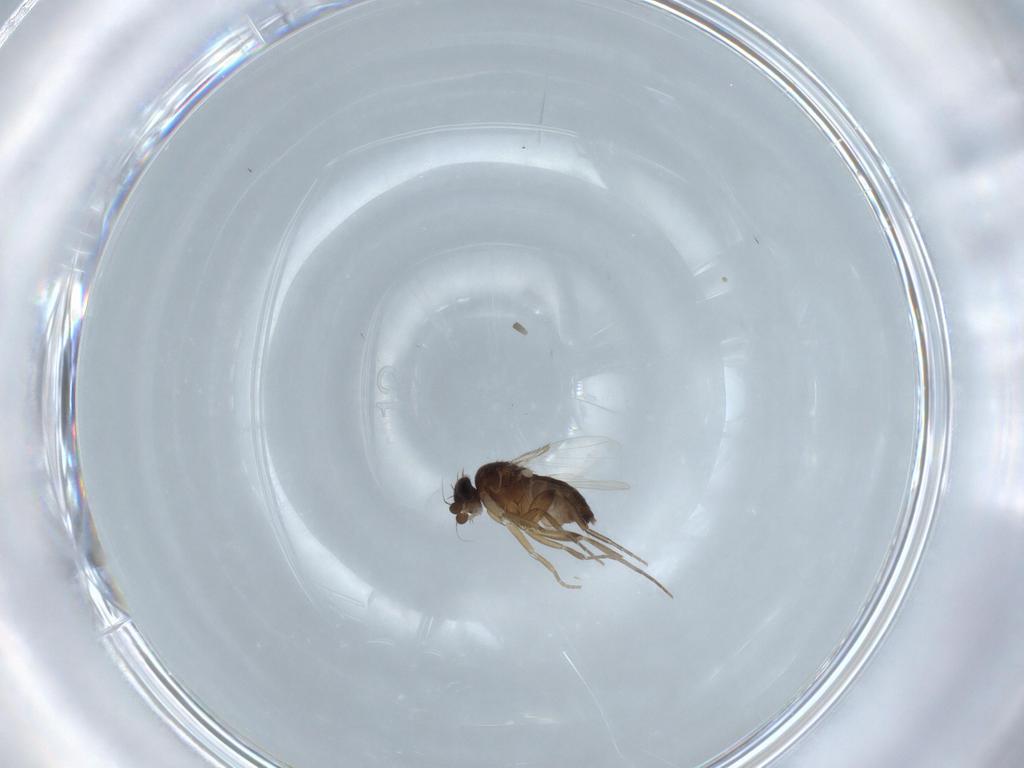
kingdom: Animalia
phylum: Arthropoda
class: Insecta
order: Diptera
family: Phoridae
